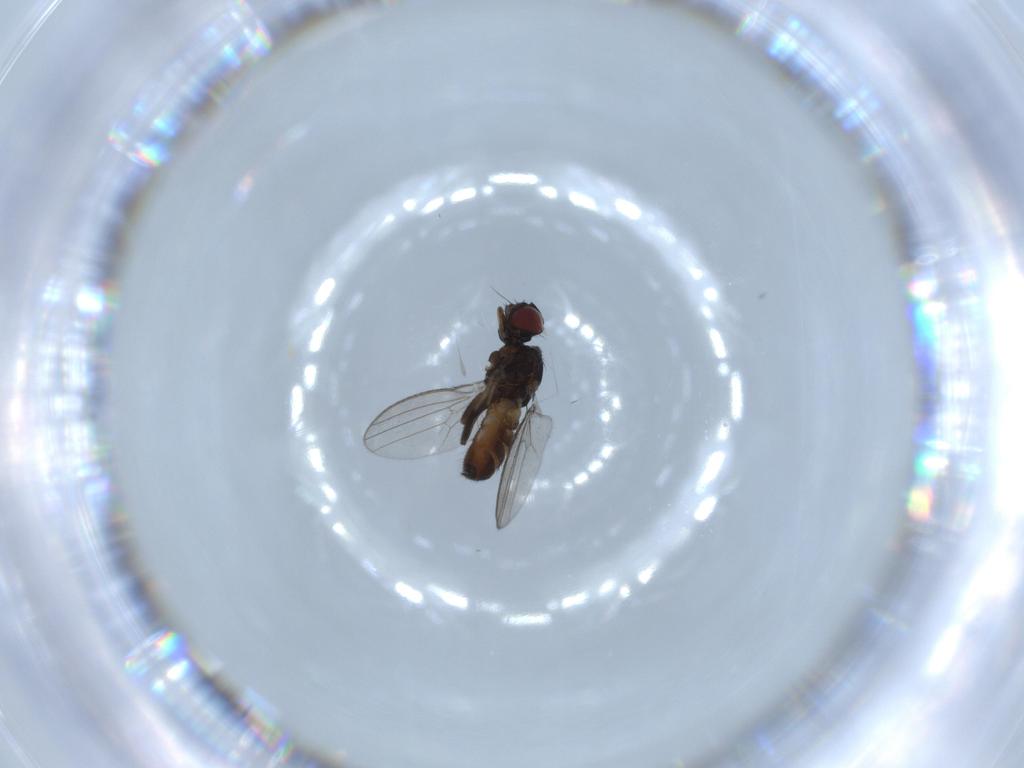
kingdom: Animalia
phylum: Arthropoda
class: Insecta
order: Diptera
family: Milichiidae
